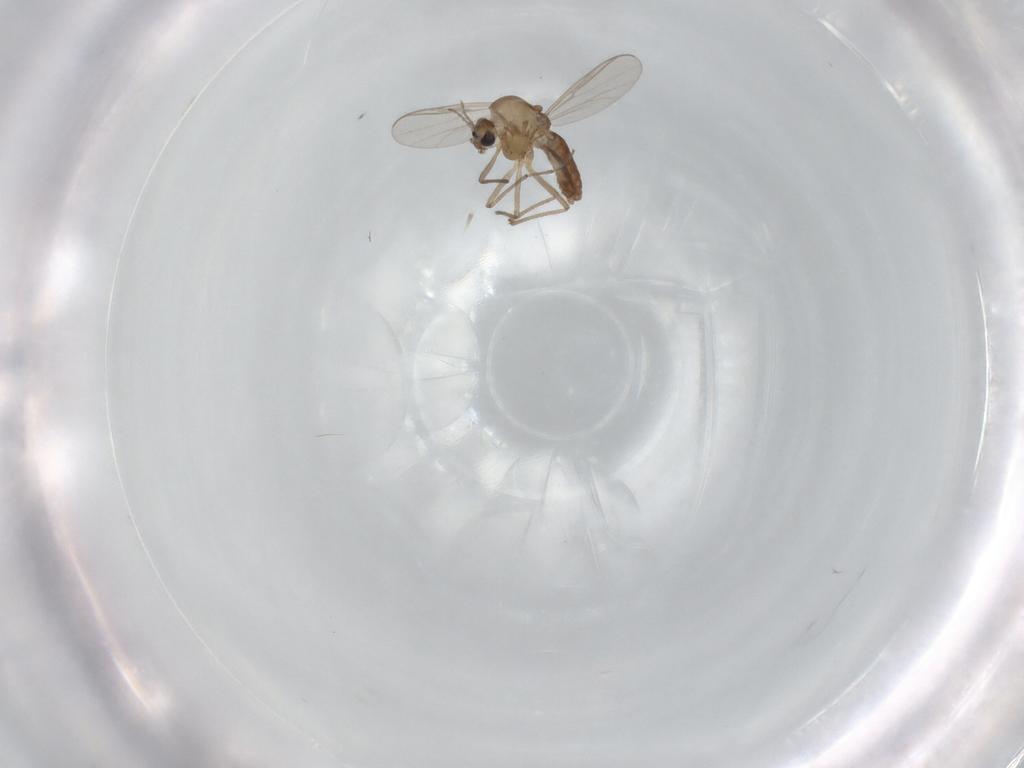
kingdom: Animalia
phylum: Arthropoda
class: Insecta
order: Diptera
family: Chironomidae
